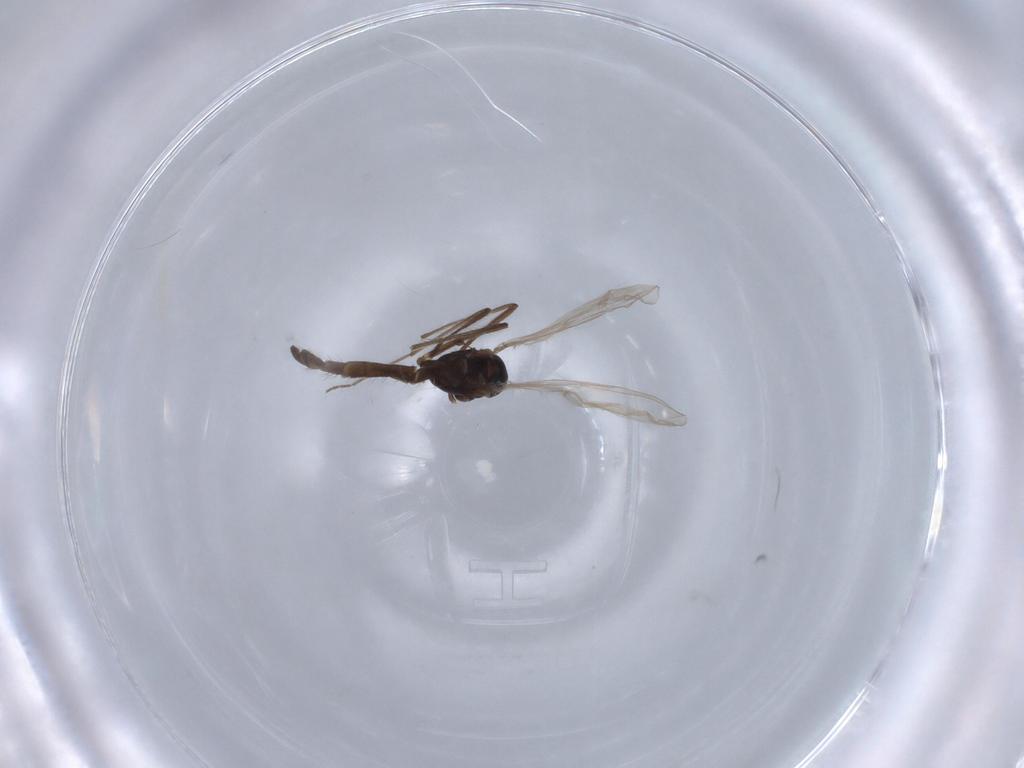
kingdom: Animalia
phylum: Arthropoda
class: Insecta
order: Diptera
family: Chironomidae
